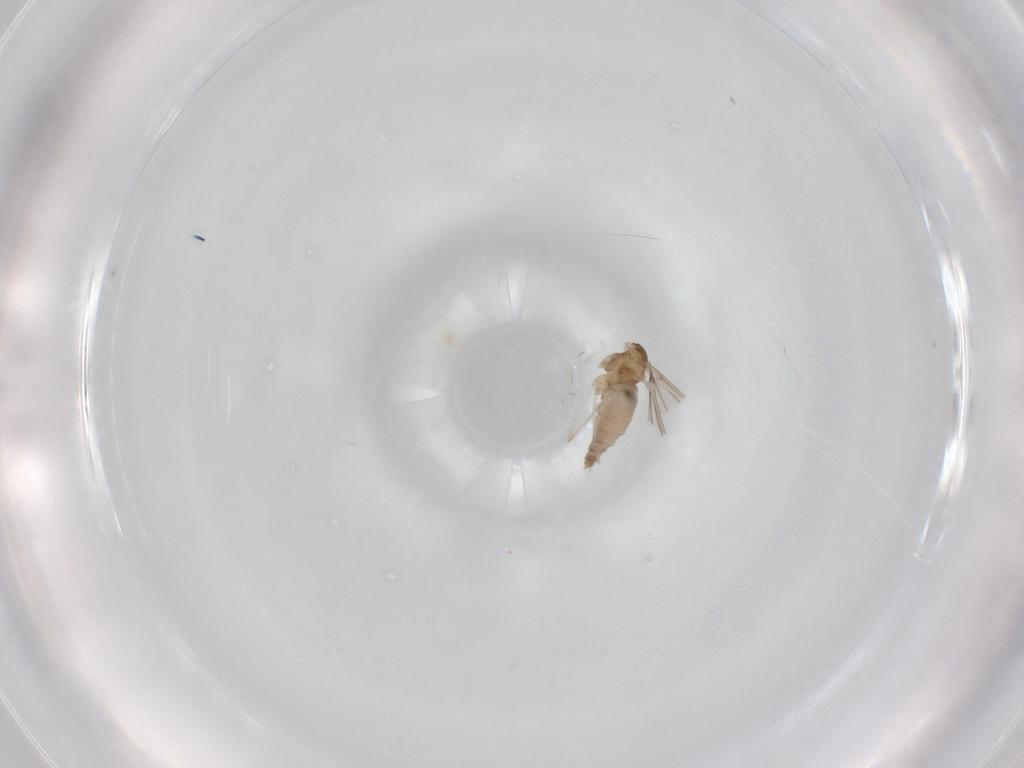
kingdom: Animalia
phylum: Arthropoda
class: Insecta
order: Diptera
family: Cecidomyiidae
